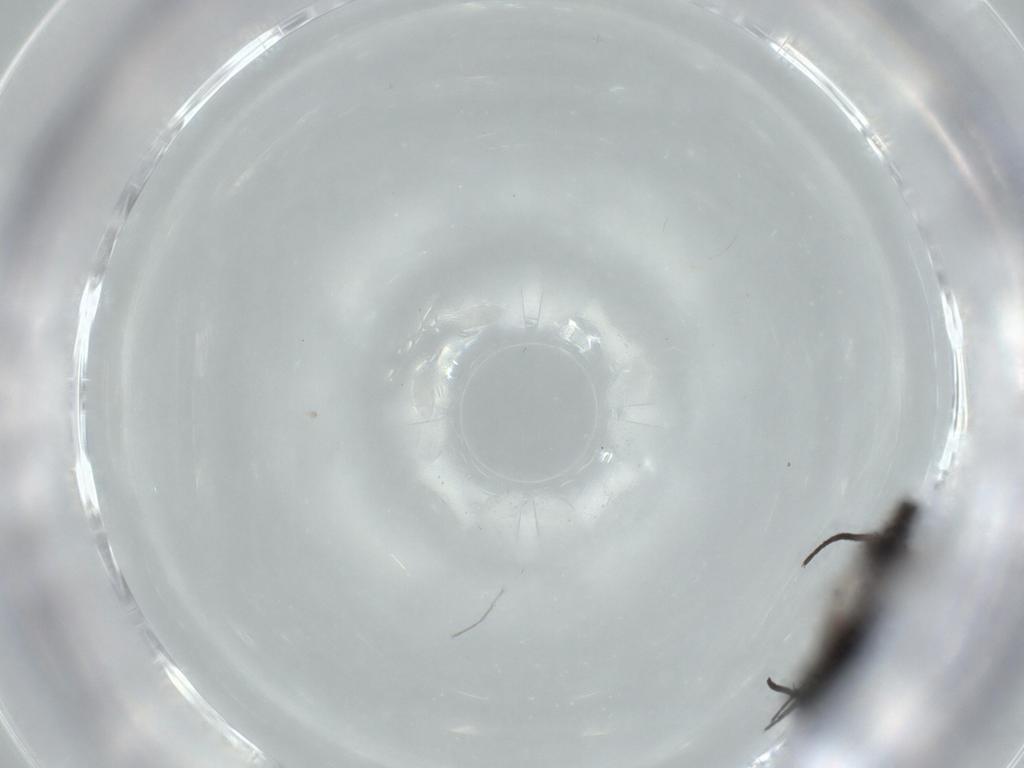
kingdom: Animalia
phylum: Arthropoda
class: Insecta
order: Diptera
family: Sciaridae
